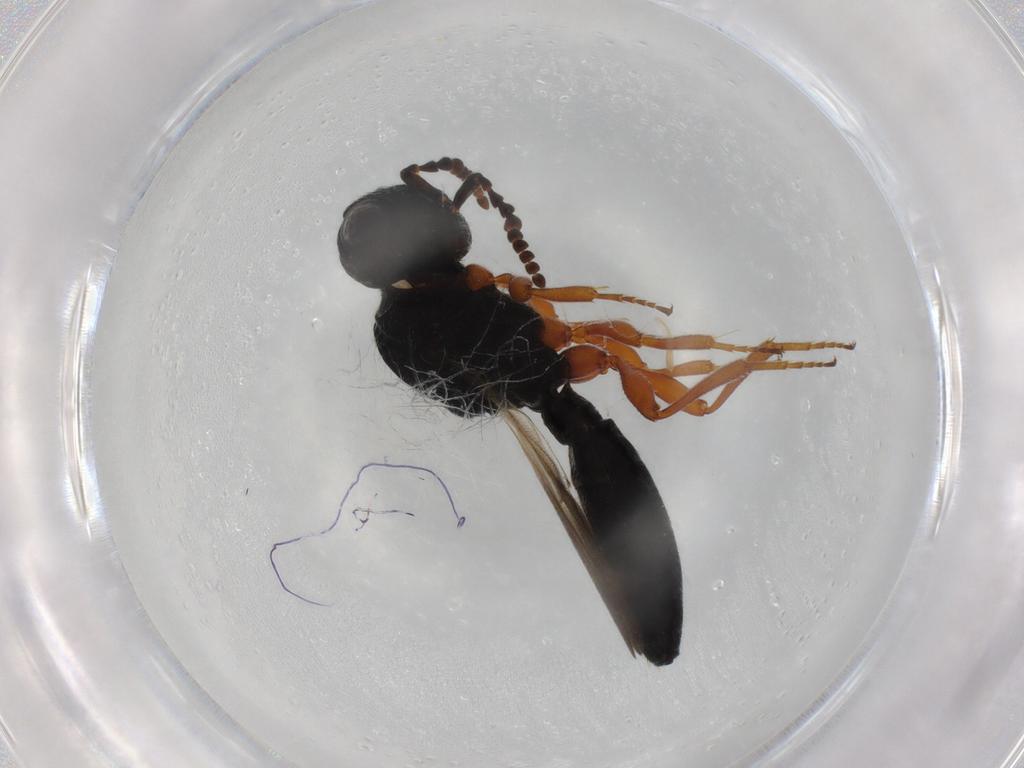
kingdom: Animalia
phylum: Arthropoda
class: Insecta
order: Hymenoptera
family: Scelionidae
